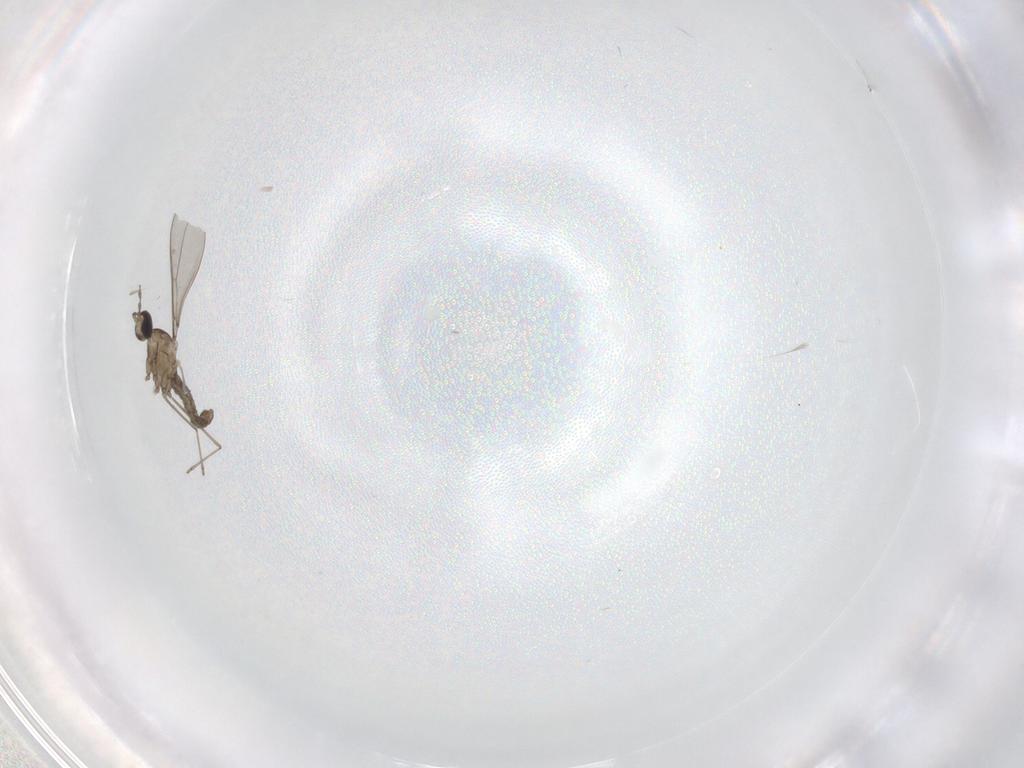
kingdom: Animalia
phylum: Arthropoda
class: Insecta
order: Diptera
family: Cecidomyiidae
